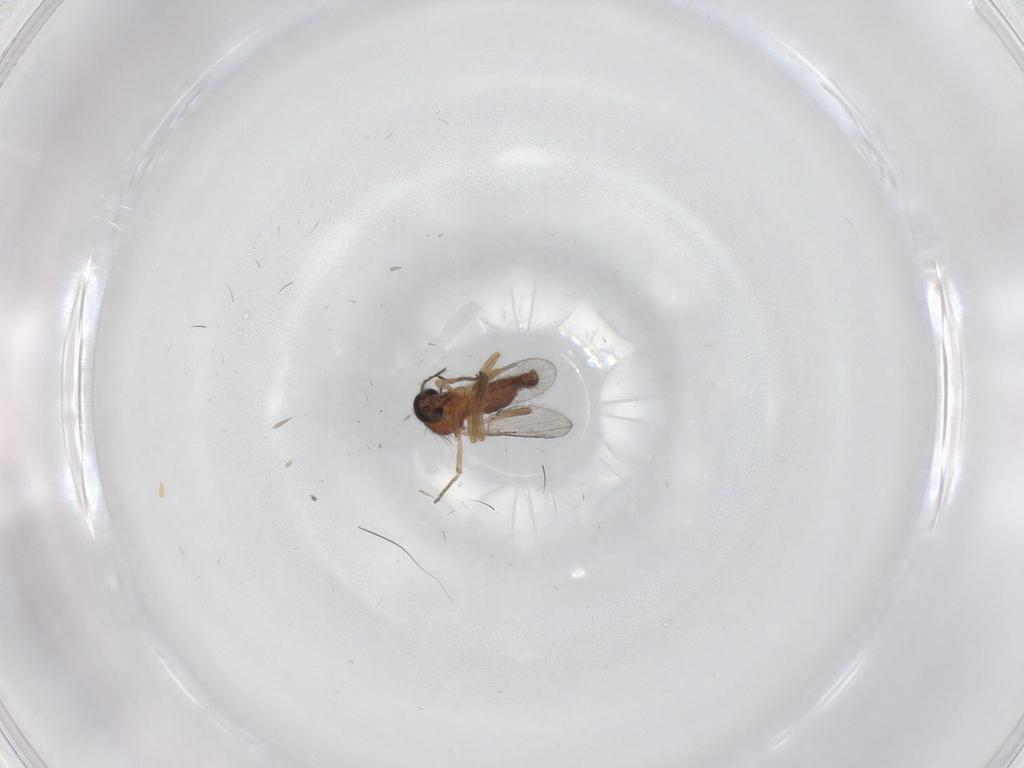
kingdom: Animalia
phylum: Arthropoda
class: Insecta
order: Diptera
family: Ceratopogonidae
